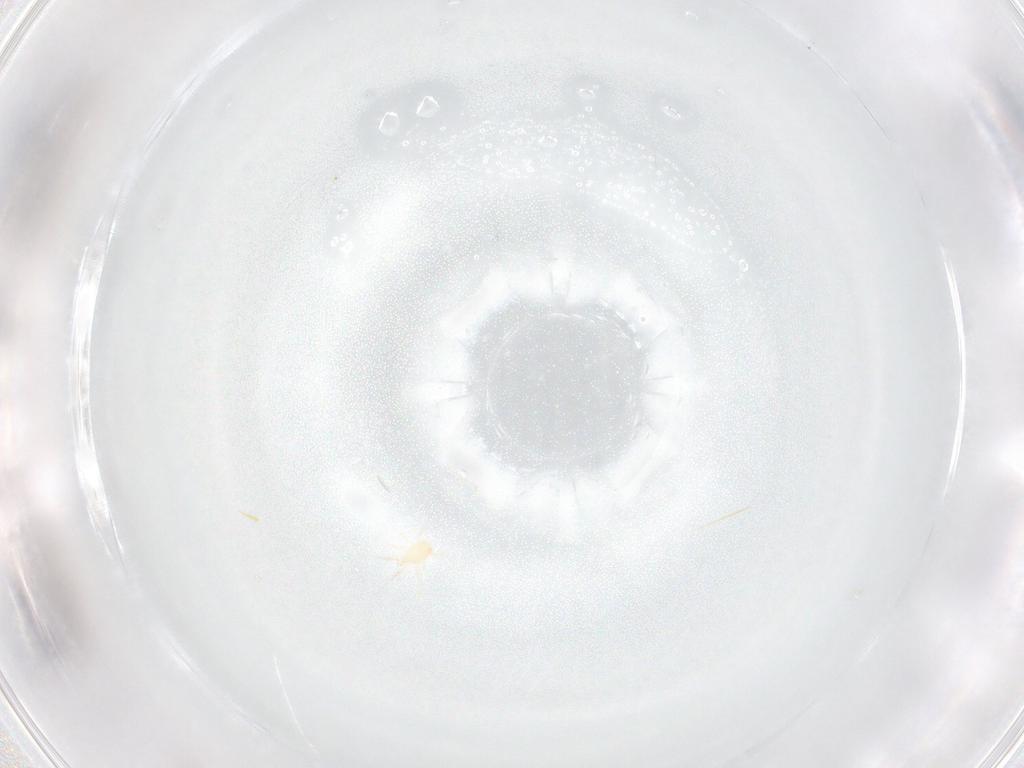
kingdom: Animalia
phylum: Arthropoda
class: Arachnida
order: Mesostigmata
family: Phytoseiidae
